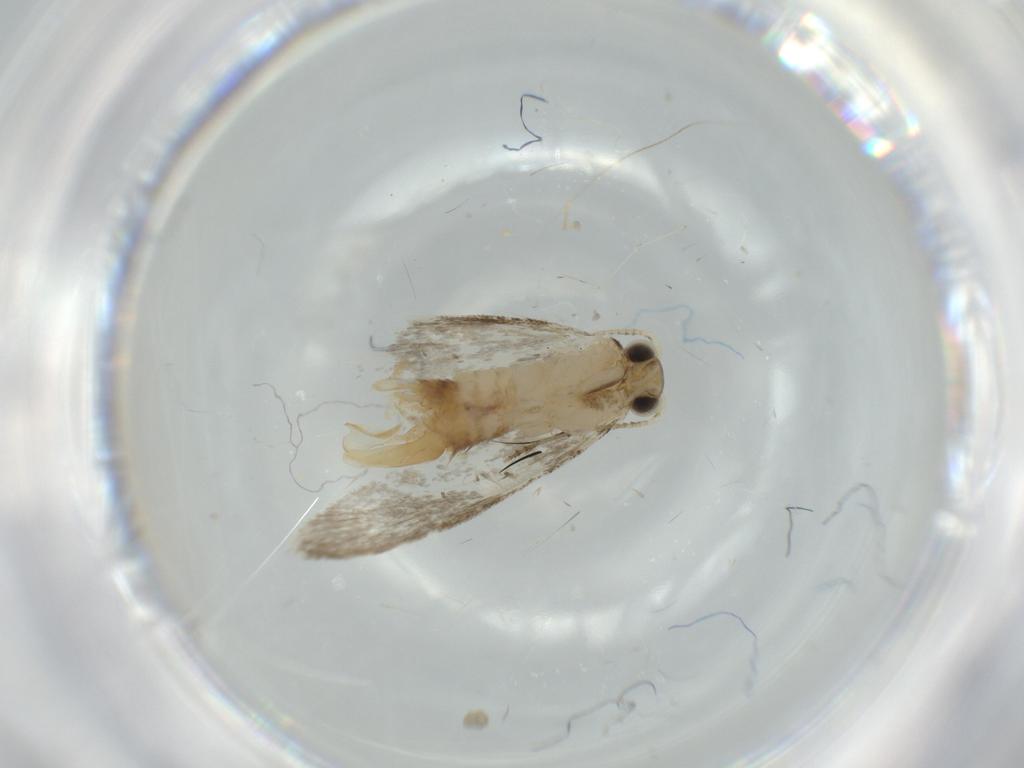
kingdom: Animalia
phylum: Arthropoda
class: Insecta
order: Lepidoptera
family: Tineidae
